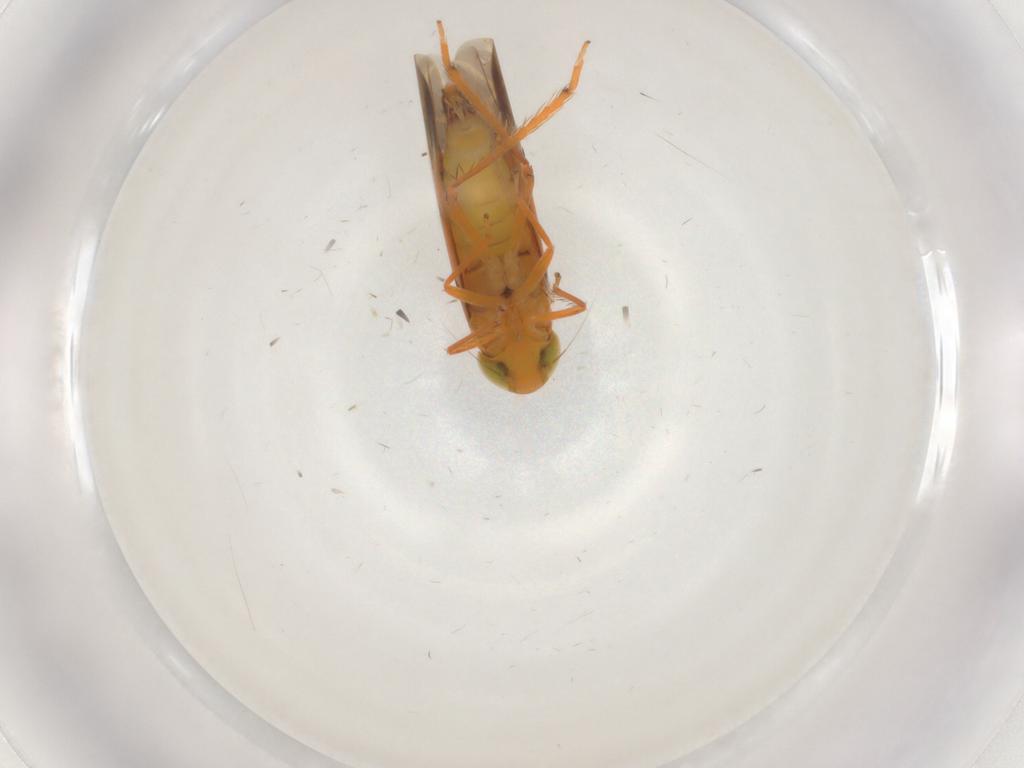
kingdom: Animalia
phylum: Arthropoda
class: Insecta
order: Hemiptera
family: Cicadellidae
